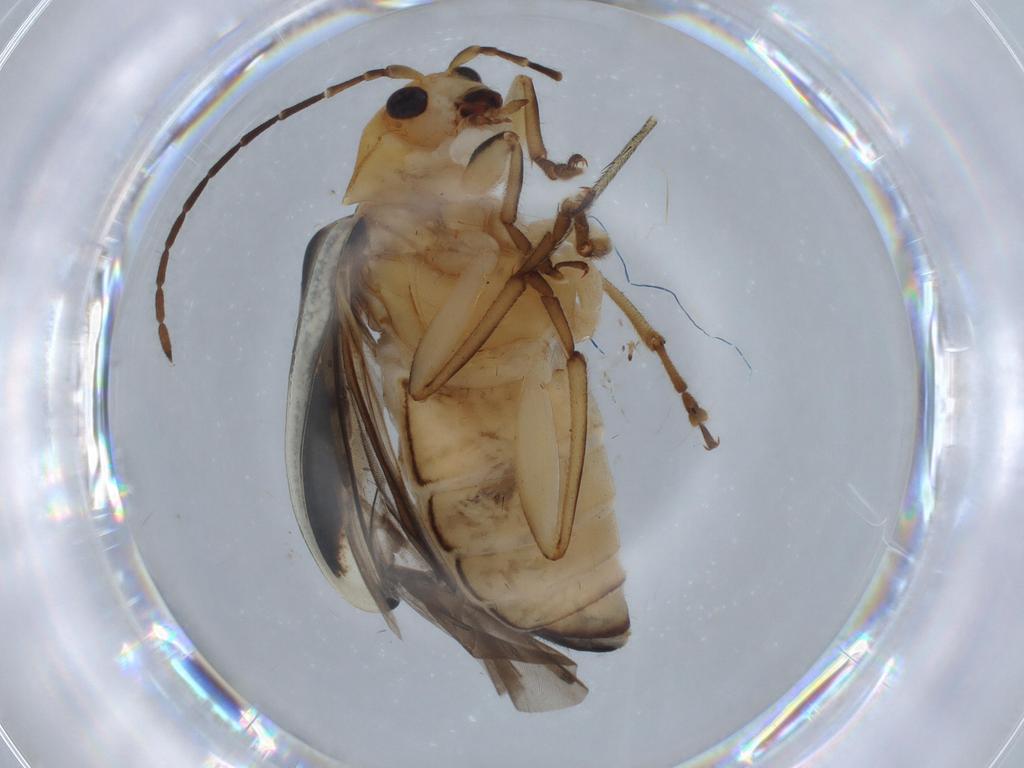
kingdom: Animalia
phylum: Arthropoda
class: Insecta
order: Coleoptera
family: Chrysomelidae
